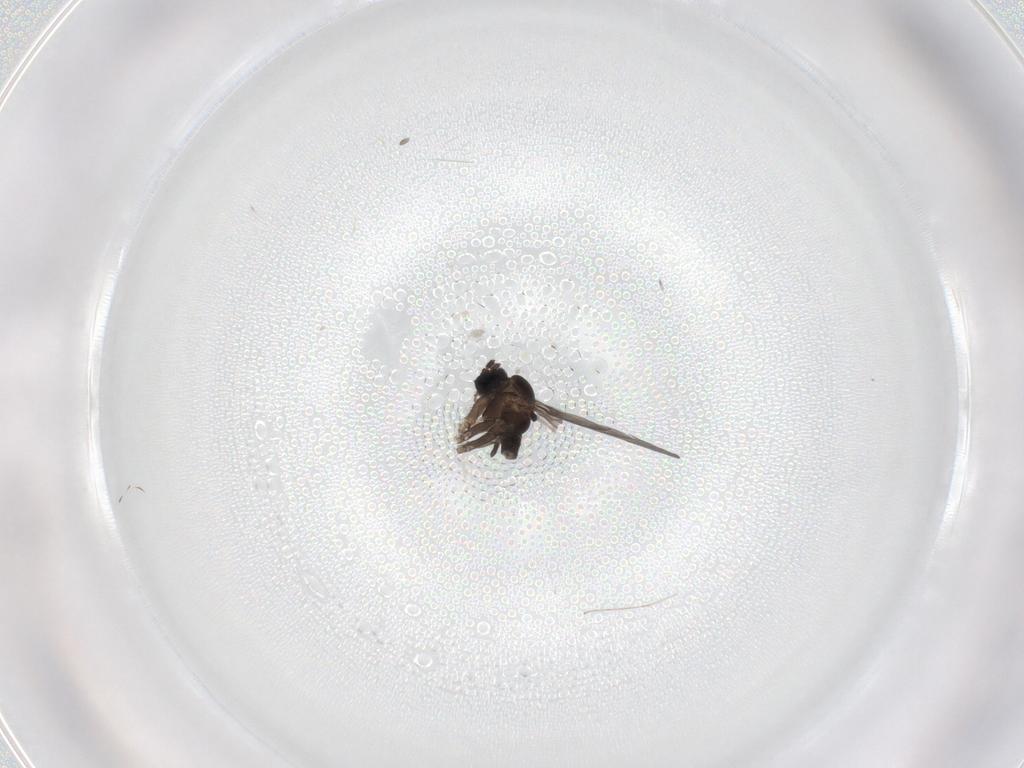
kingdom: Animalia
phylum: Arthropoda
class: Insecta
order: Diptera
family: Sciaridae
